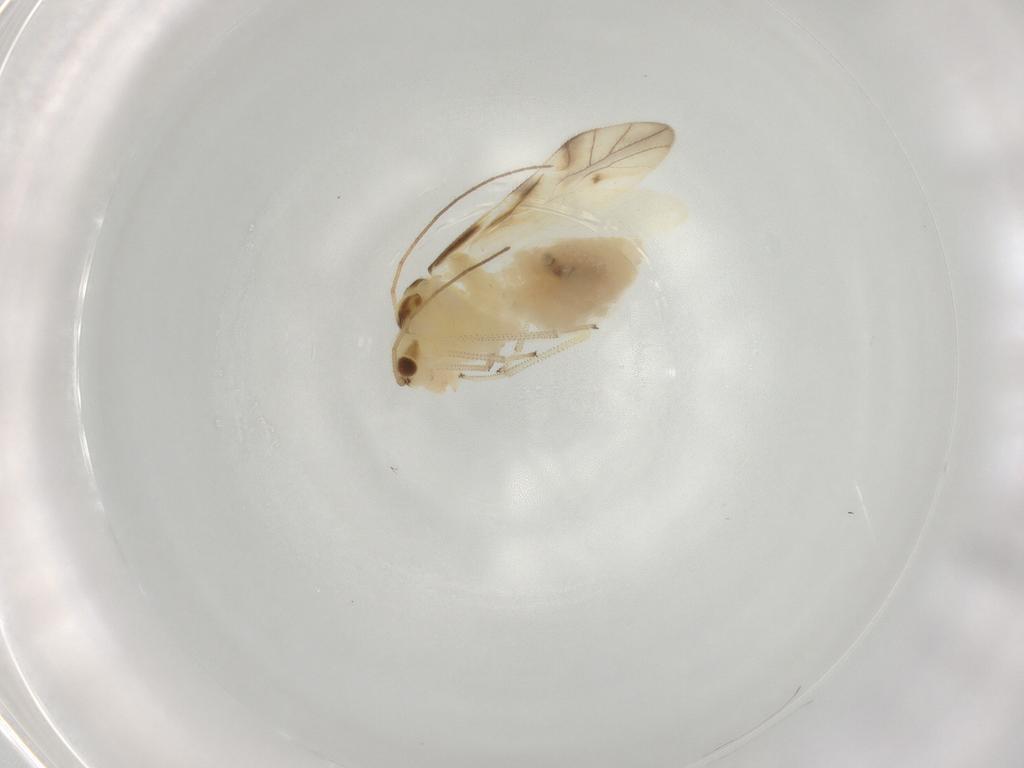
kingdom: Animalia
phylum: Arthropoda
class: Insecta
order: Psocodea
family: Caeciliusidae
